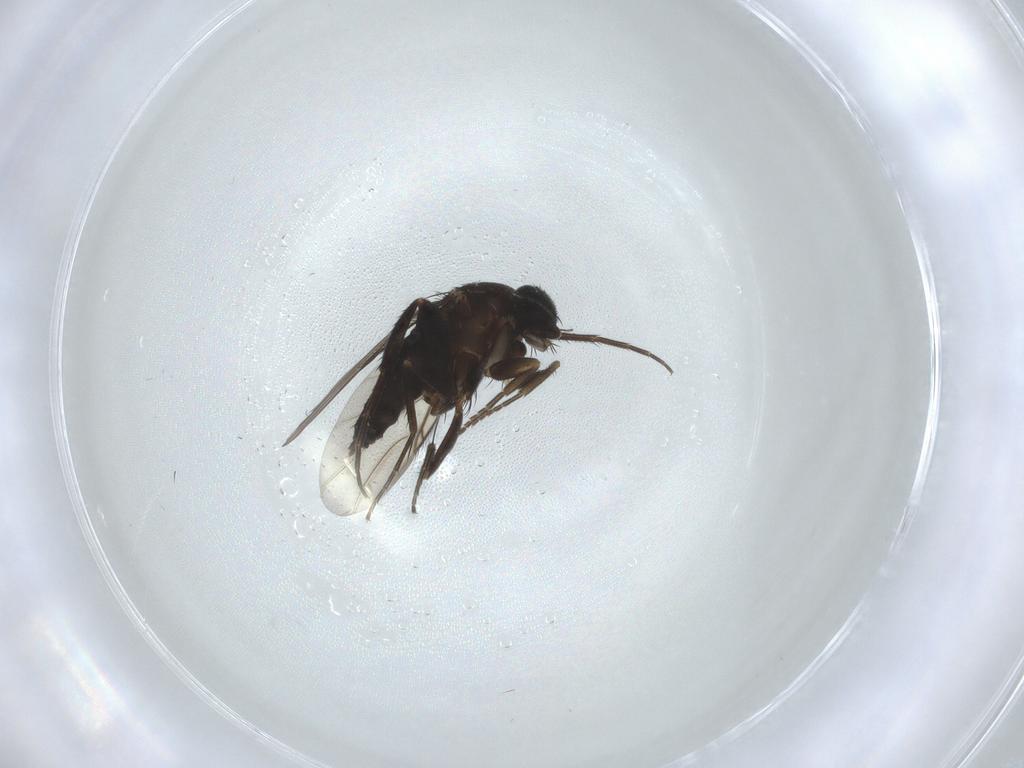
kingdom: Animalia
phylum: Arthropoda
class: Insecta
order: Diptera
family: Phoridae
